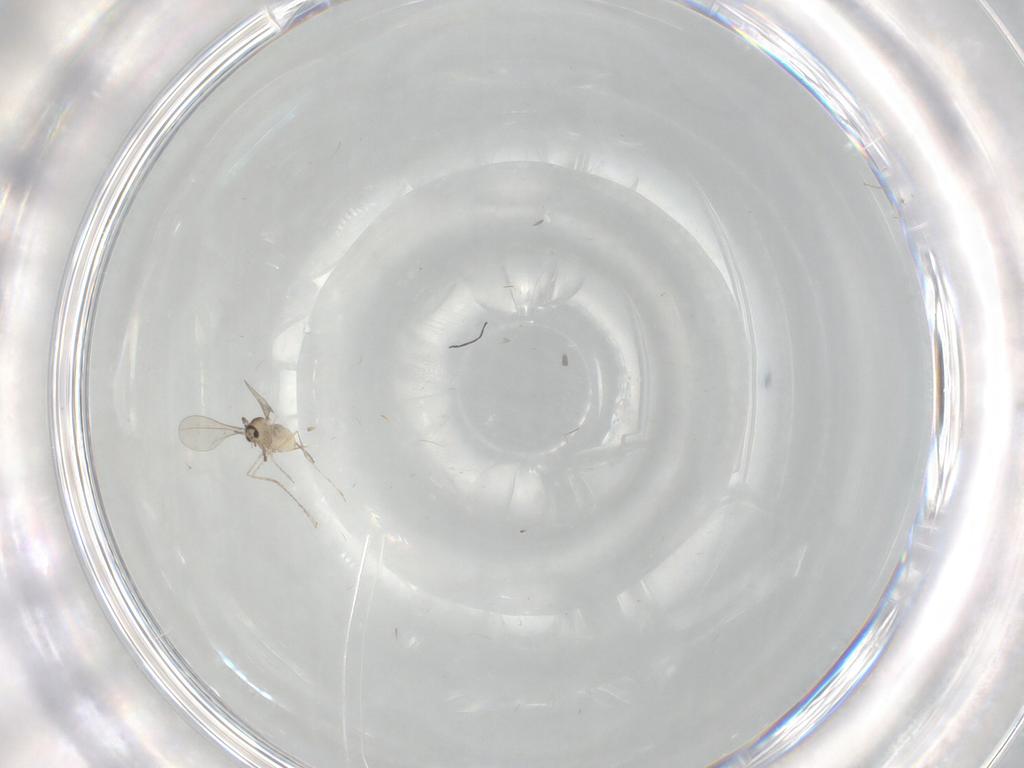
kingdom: Animalia
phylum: Arthropoda
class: Insecta
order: Diptera
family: Cecidomyiidae
